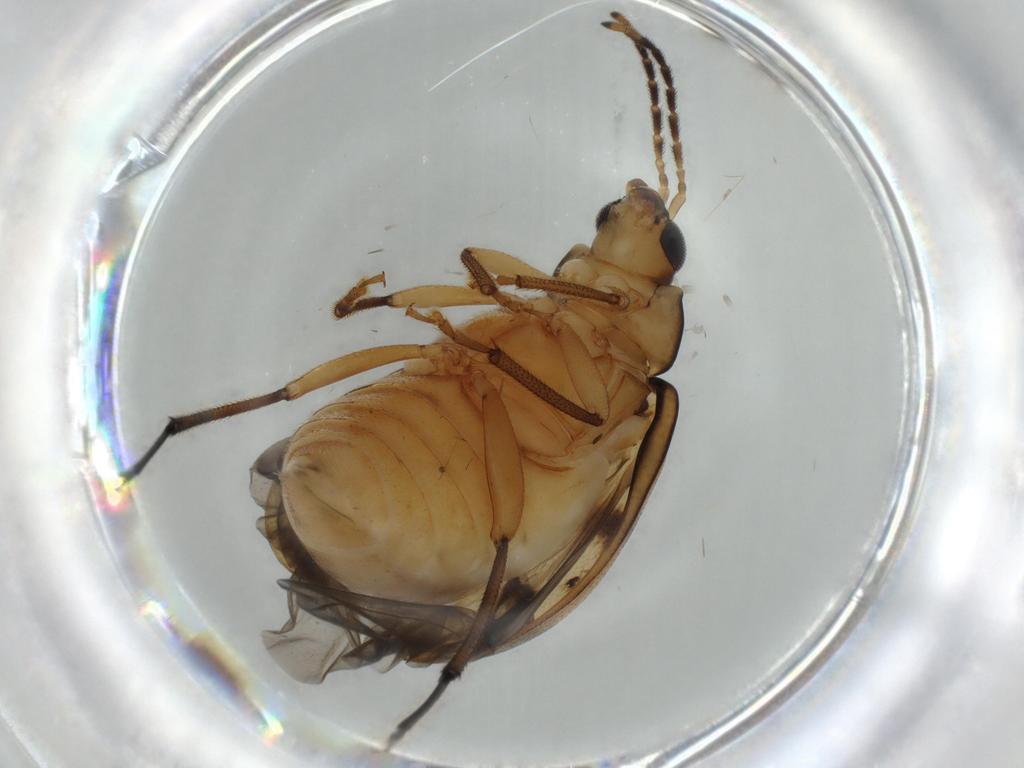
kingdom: Animalia
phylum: Arthropoda
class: Insecta
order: Coleoptera
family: Chrysomelidae
